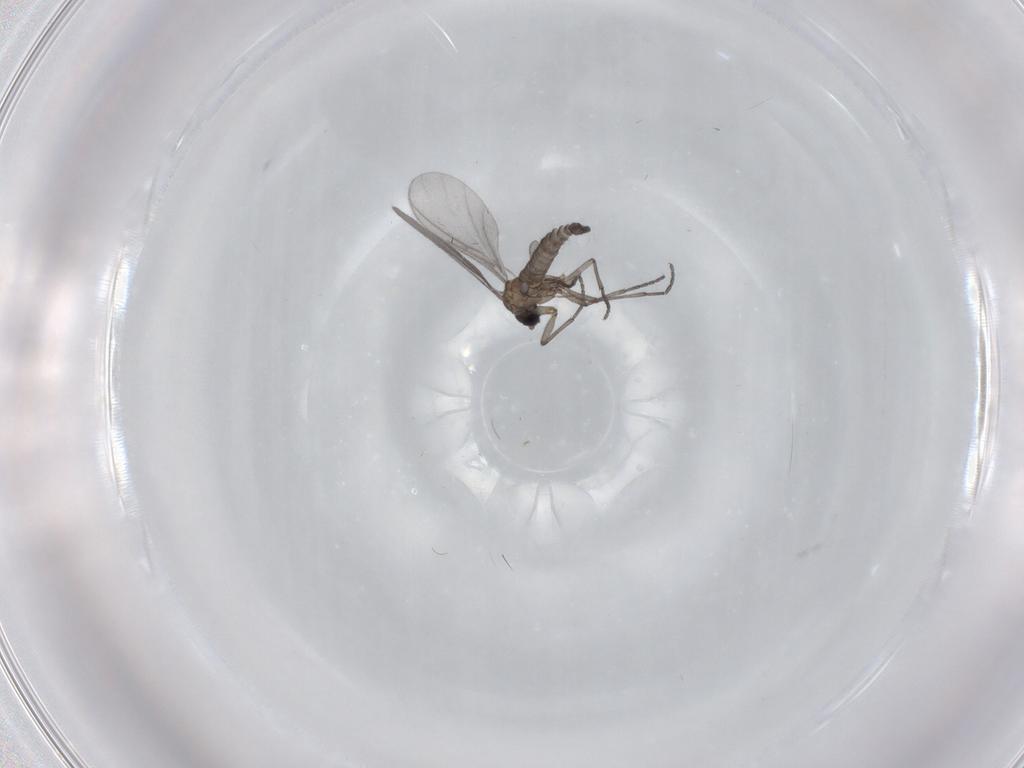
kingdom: Animalia
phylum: Arthropoda
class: Insecta
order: Diptera
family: Sciaridae
